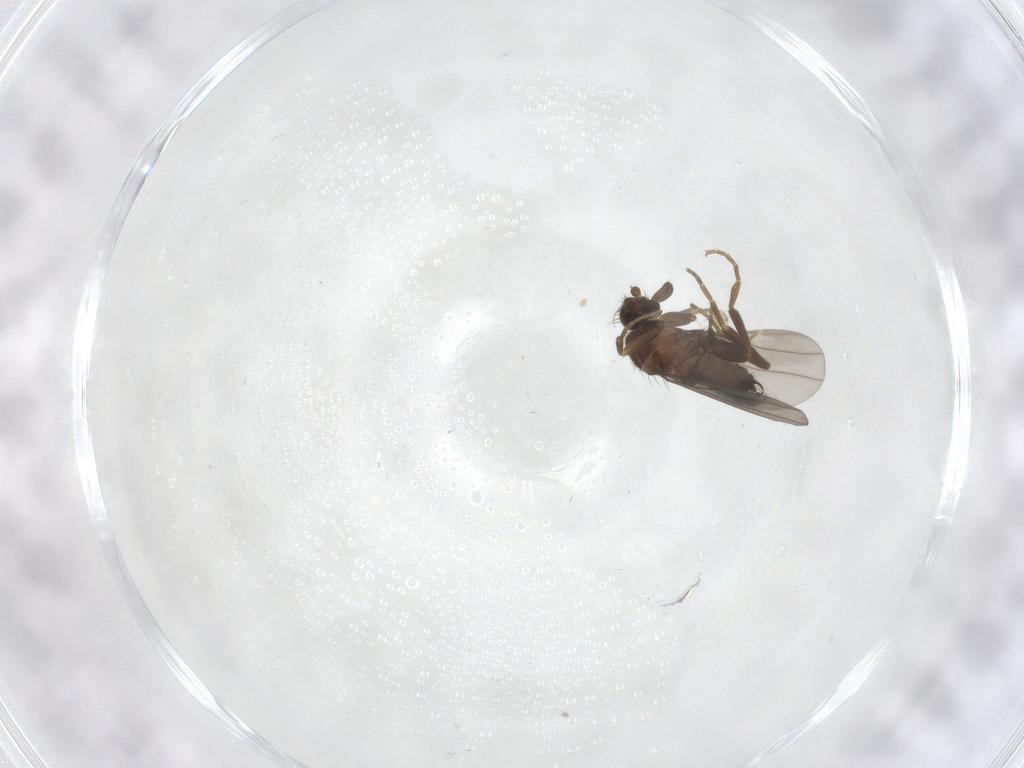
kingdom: Animalia
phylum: Arthropoda
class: Insecta
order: Diptera
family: Phoridae
